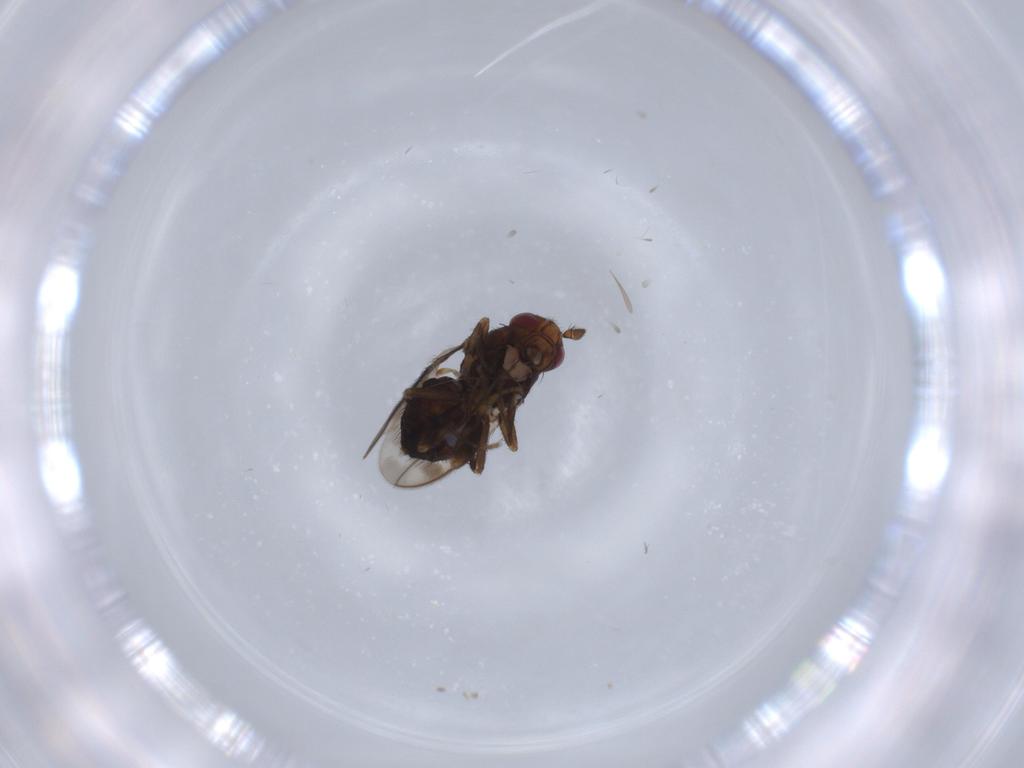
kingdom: Animalia
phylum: Arthropoda
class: Insecta
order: Diptera
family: Sphaeroceridae
